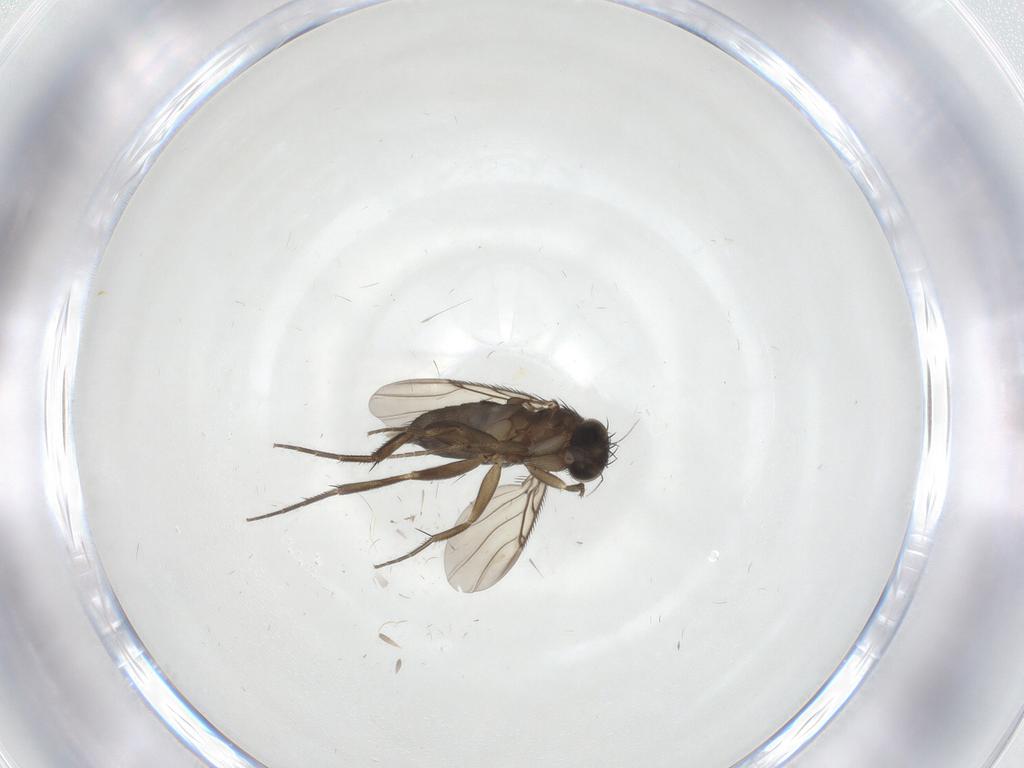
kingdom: Animalia
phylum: Arthropoda
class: Insecta
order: Diptera
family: Phoridae
